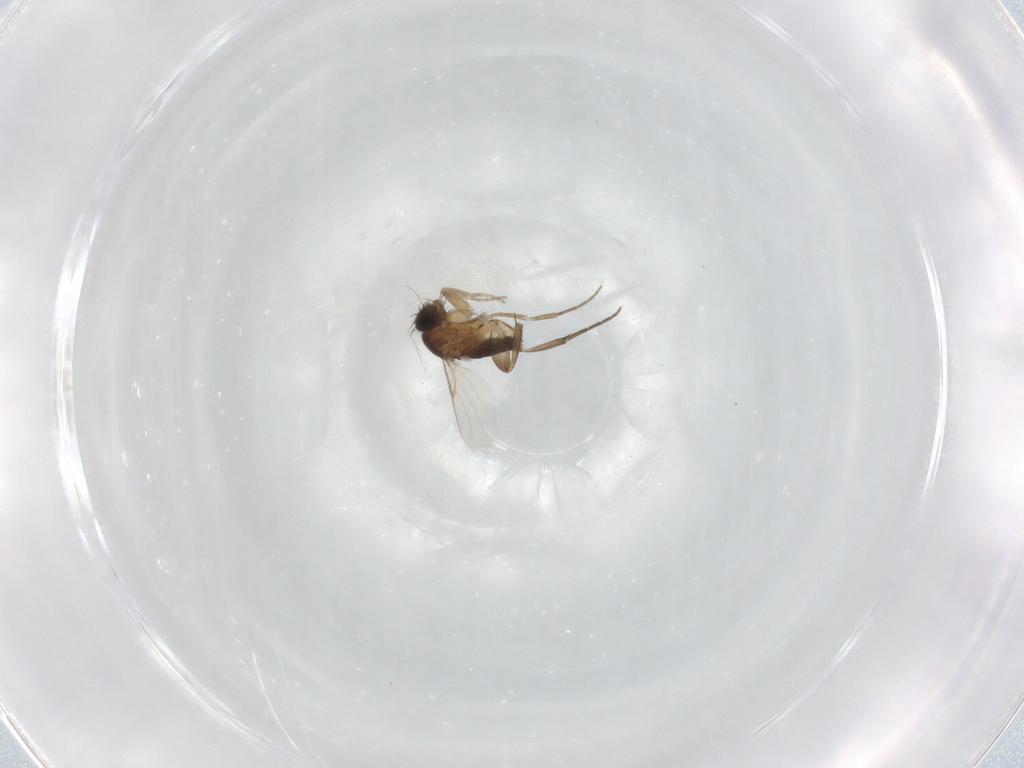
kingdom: Animalia
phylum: Arthropoda
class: Insecta
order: Diptera
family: Phoridae
